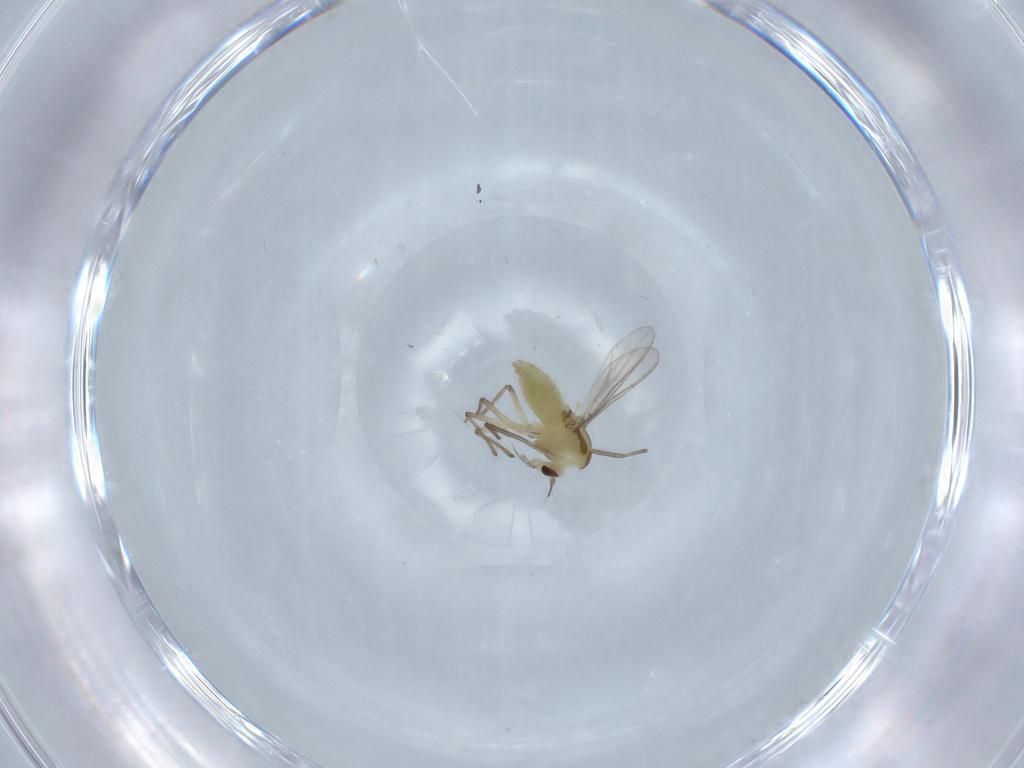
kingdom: Animalia
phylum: Arthropoda
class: Insecta
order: Diptera
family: Chironomidae
